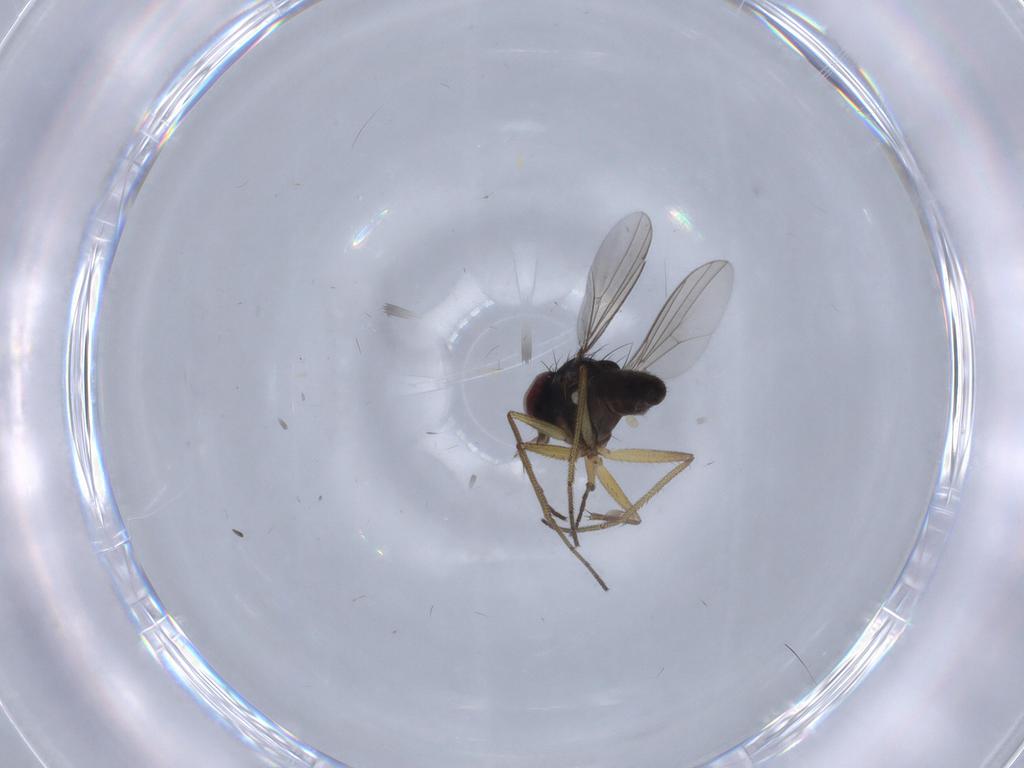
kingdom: Animalia
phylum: Arthropoda
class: Insecta
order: Diptera
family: Dolichopodidae
